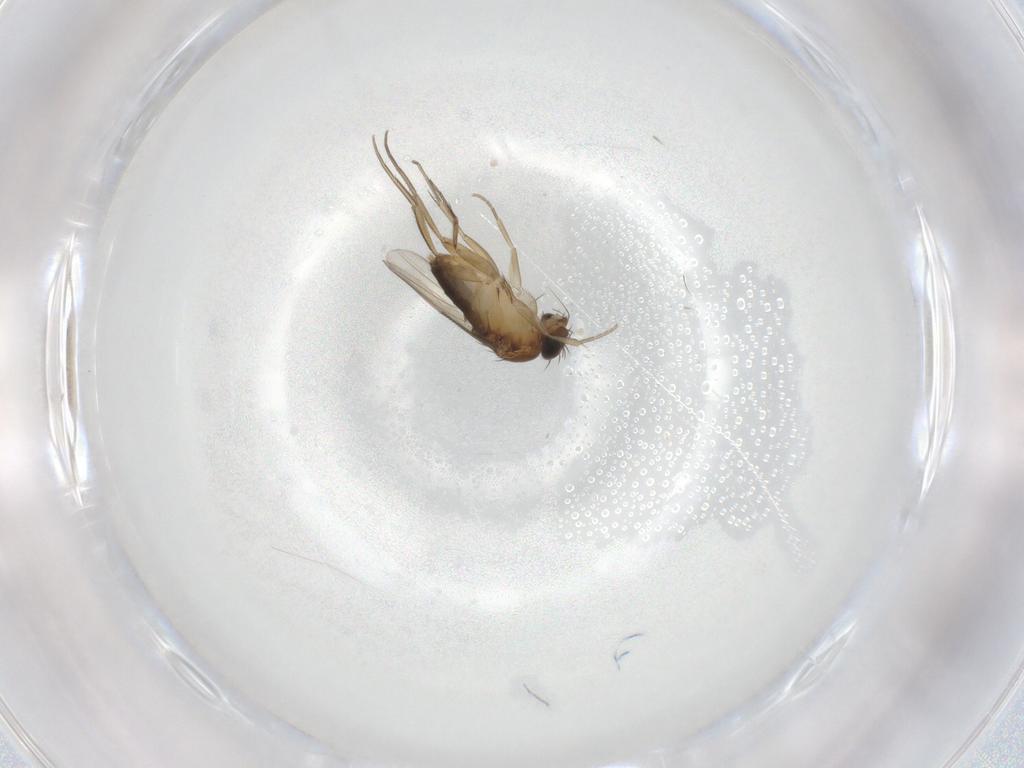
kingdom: Animalia
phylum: Arthropoda
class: Insecta
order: Diptera
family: Phoridae
